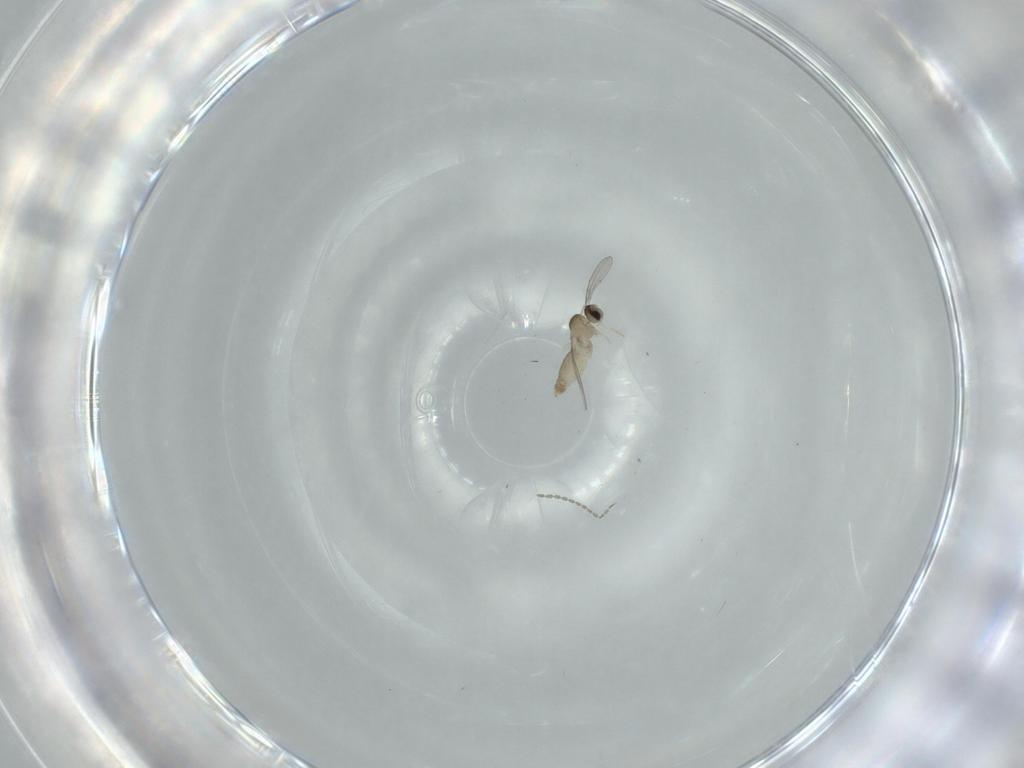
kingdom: Animalia
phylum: Arthropoda
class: Insecta
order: Diptera
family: Cecidomyiidae
